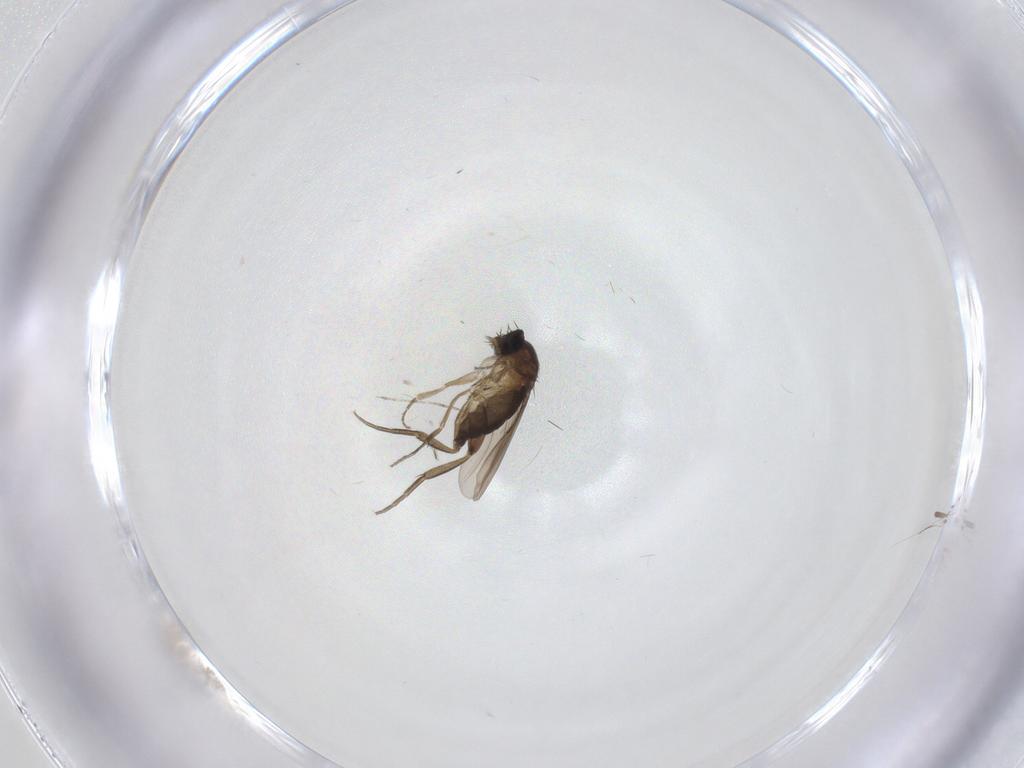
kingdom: Animalia
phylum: Arthropoda
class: Insecta
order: Diptera
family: Phoridae
